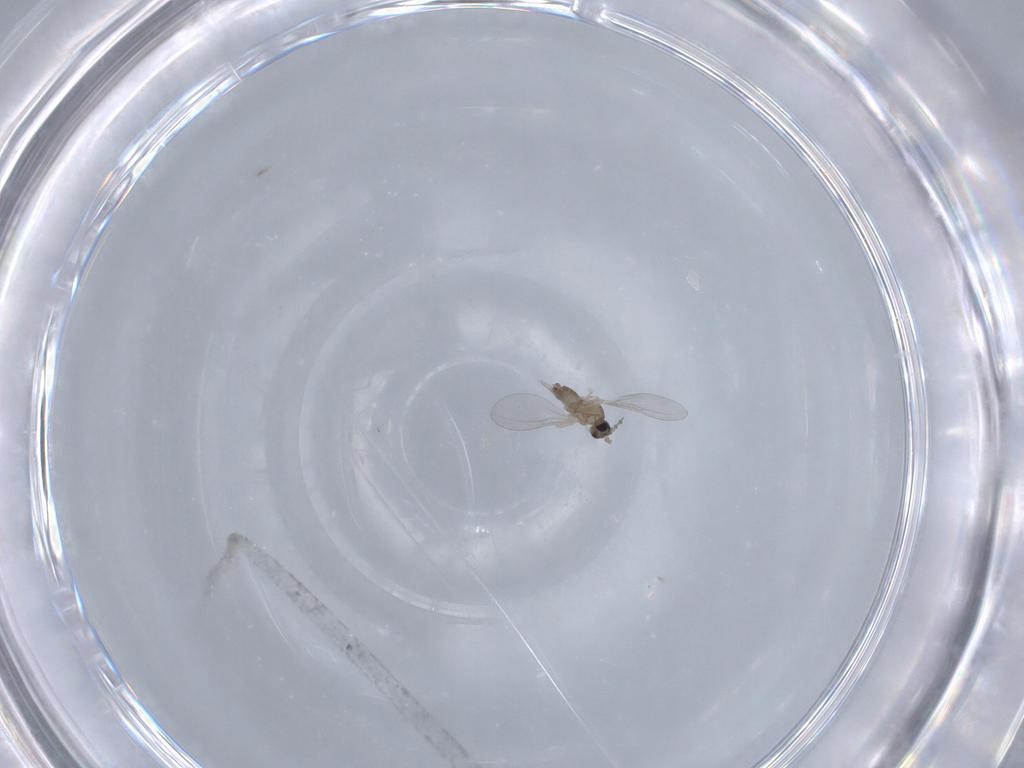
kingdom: Animalia
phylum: Arthropoda
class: Insecta
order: Diptera
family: Cecidomyiidae
